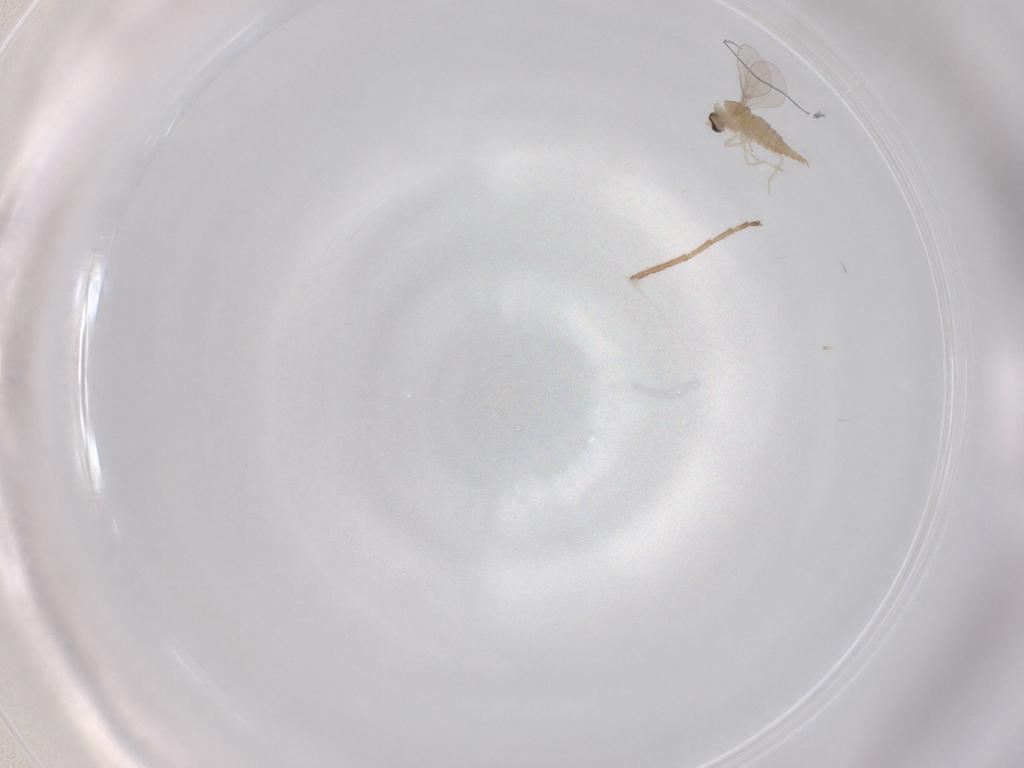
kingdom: Animalia
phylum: Arthropoda
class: Insecta
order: Diptera
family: Cecidomyiidae
